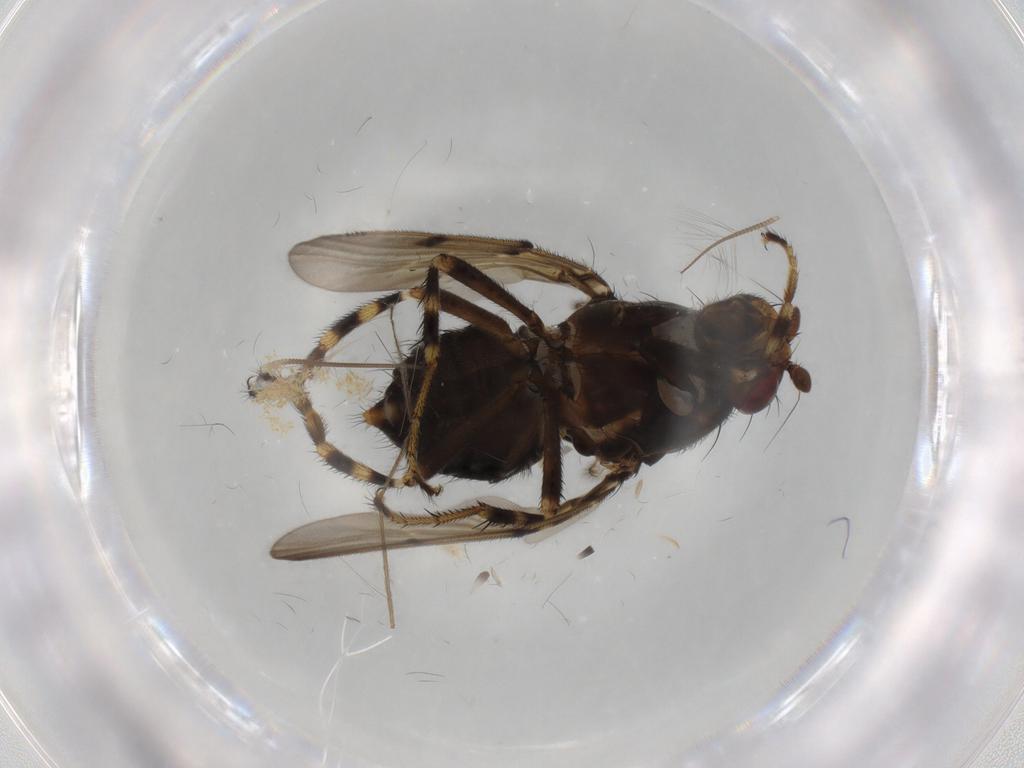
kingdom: Animalia
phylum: Arthropoda
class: Insecta
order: Diptera
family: Sphaeroceridae
